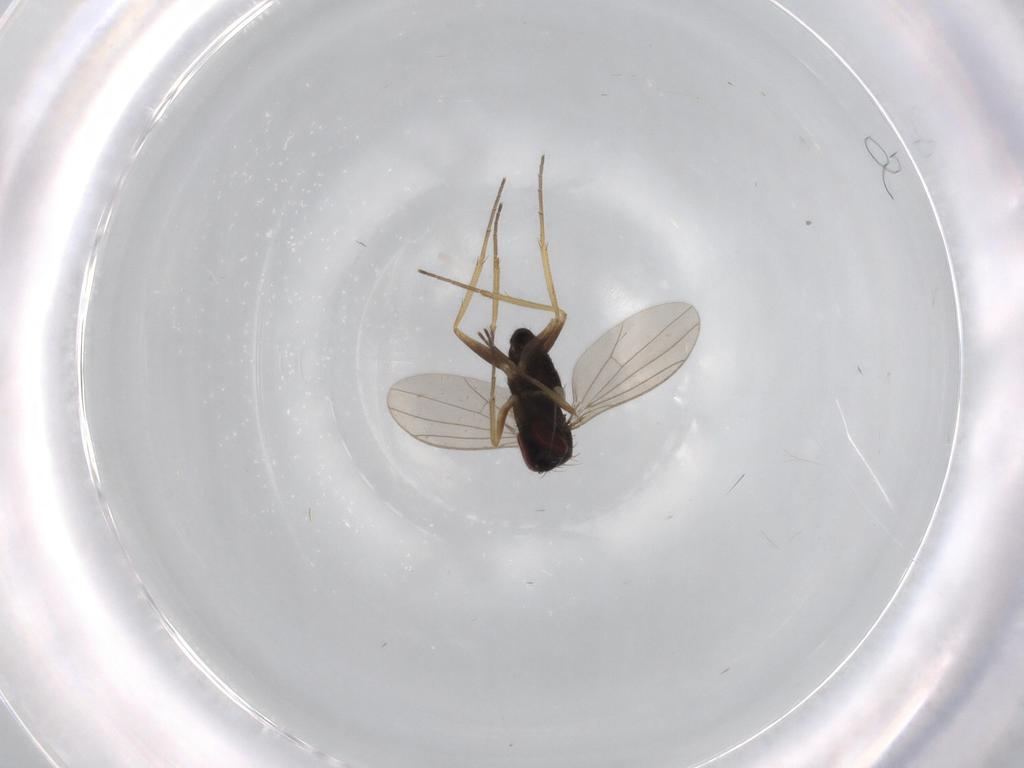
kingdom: Animalia
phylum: Arthropoda
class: Insecta
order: Diptera
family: Dolichopodidae
